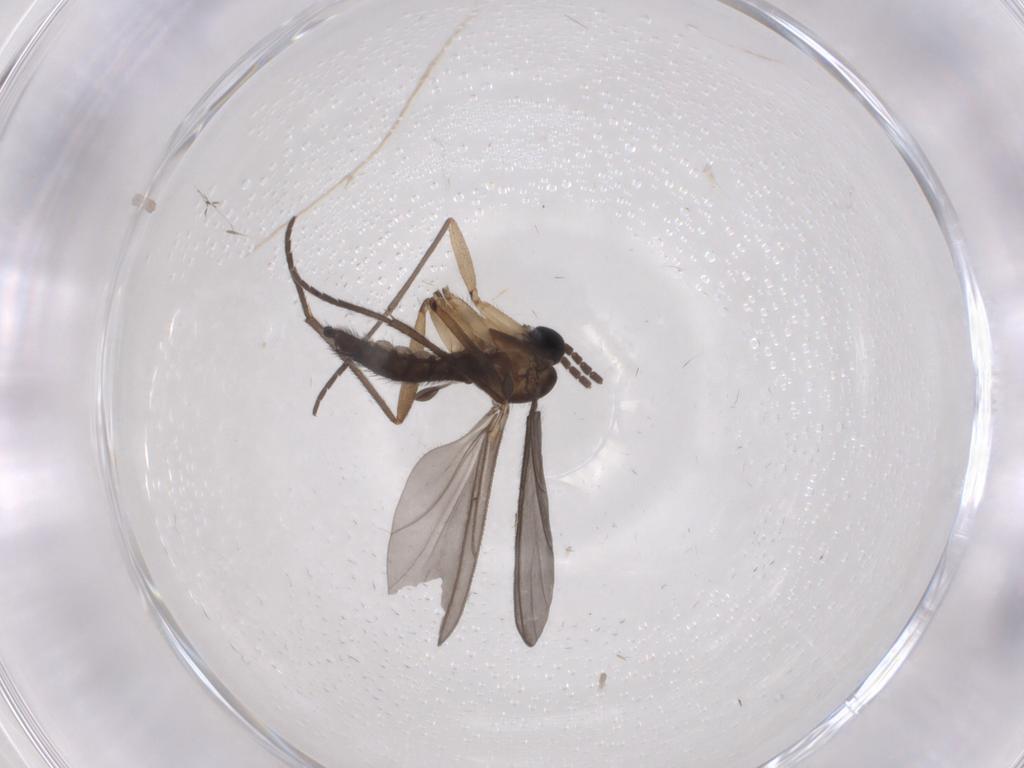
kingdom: Animalia
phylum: Arthropoda
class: Insecta
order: Diptera
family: Sciaridae
